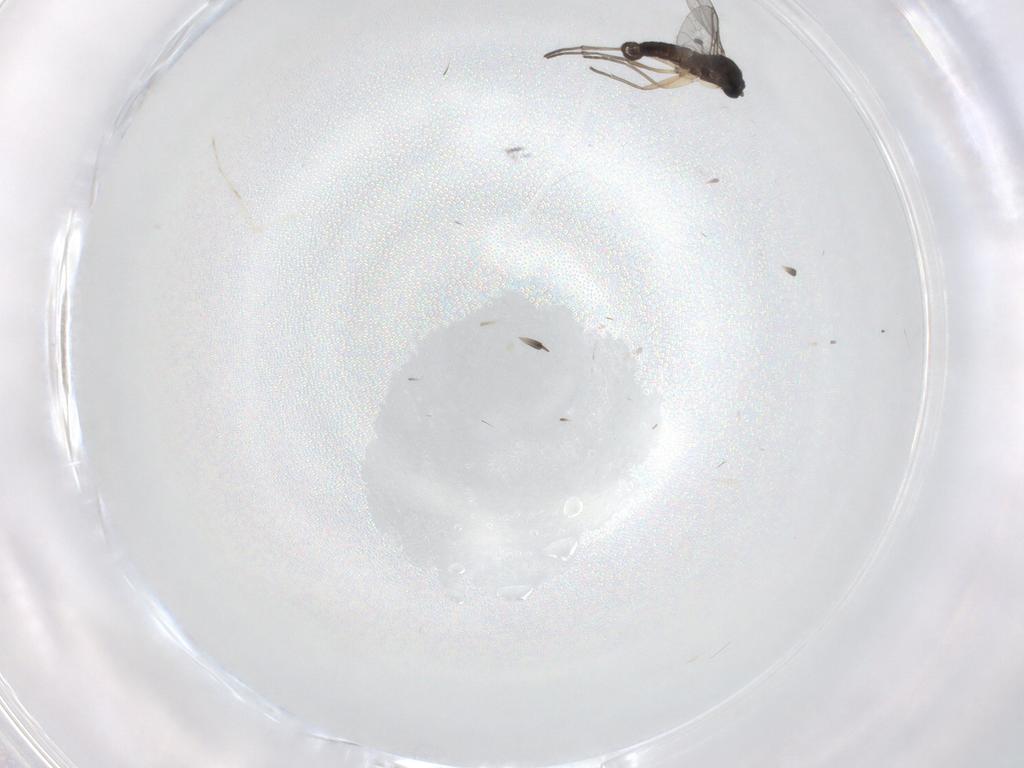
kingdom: Animalia
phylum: Arthropoda
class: Insecta
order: Diptera
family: Cecidomyiidae
